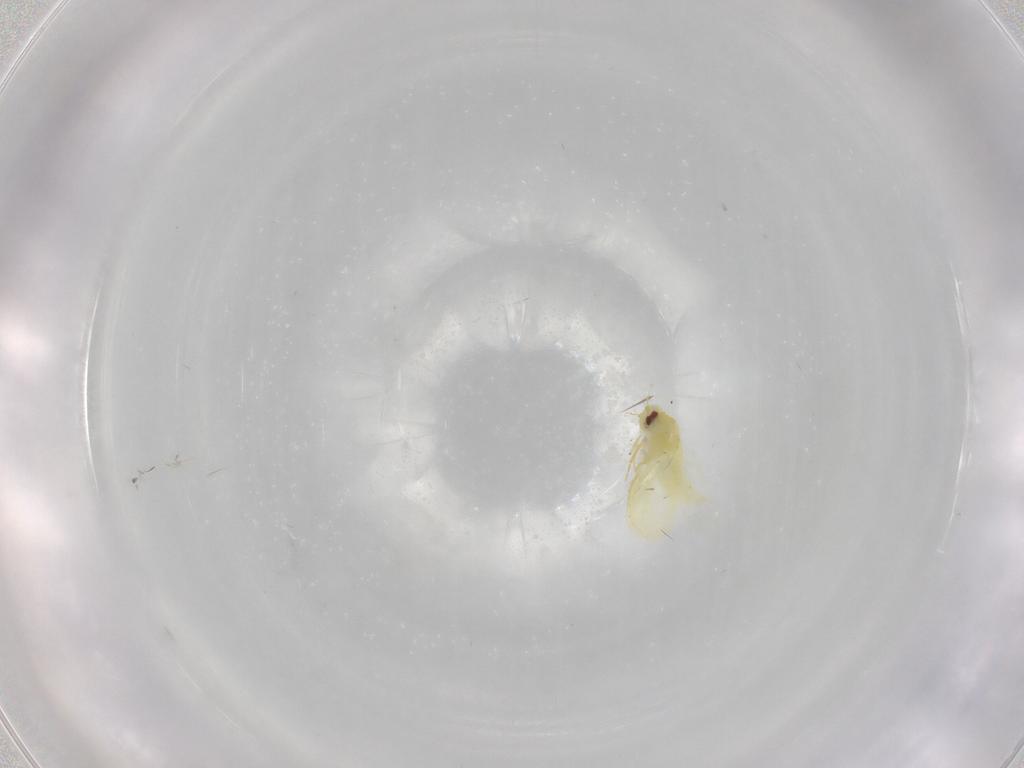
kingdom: Animalia
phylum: Arthropoda
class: Insecta
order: Hemiptera
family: Aleyrodidae
